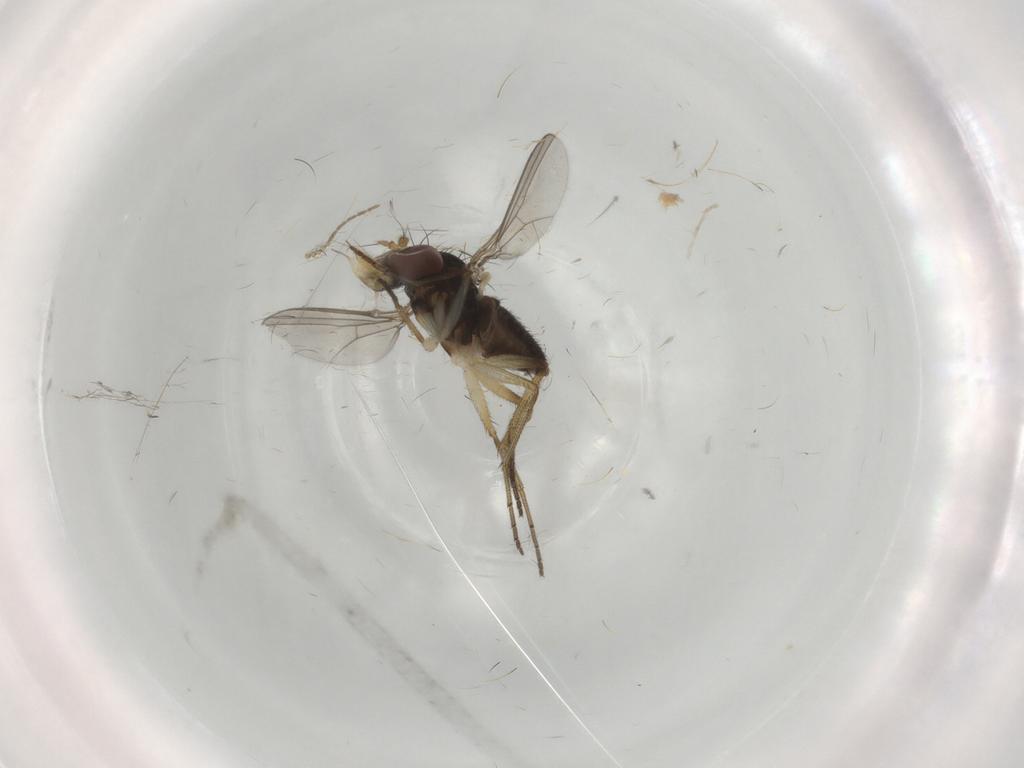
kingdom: Animalia
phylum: Arthropoda
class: Insecta
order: Diptera
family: Dolichopodidae
